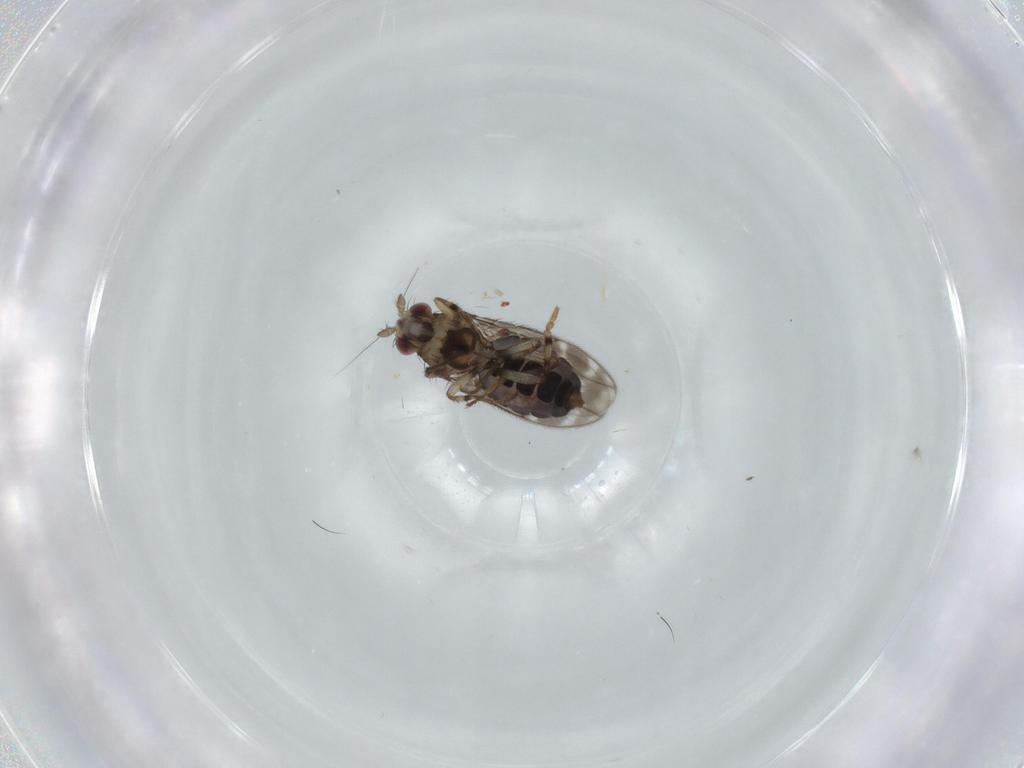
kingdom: Animalia
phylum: Arthropoda
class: Insecta
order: Diptera
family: Sphaeroceridae
